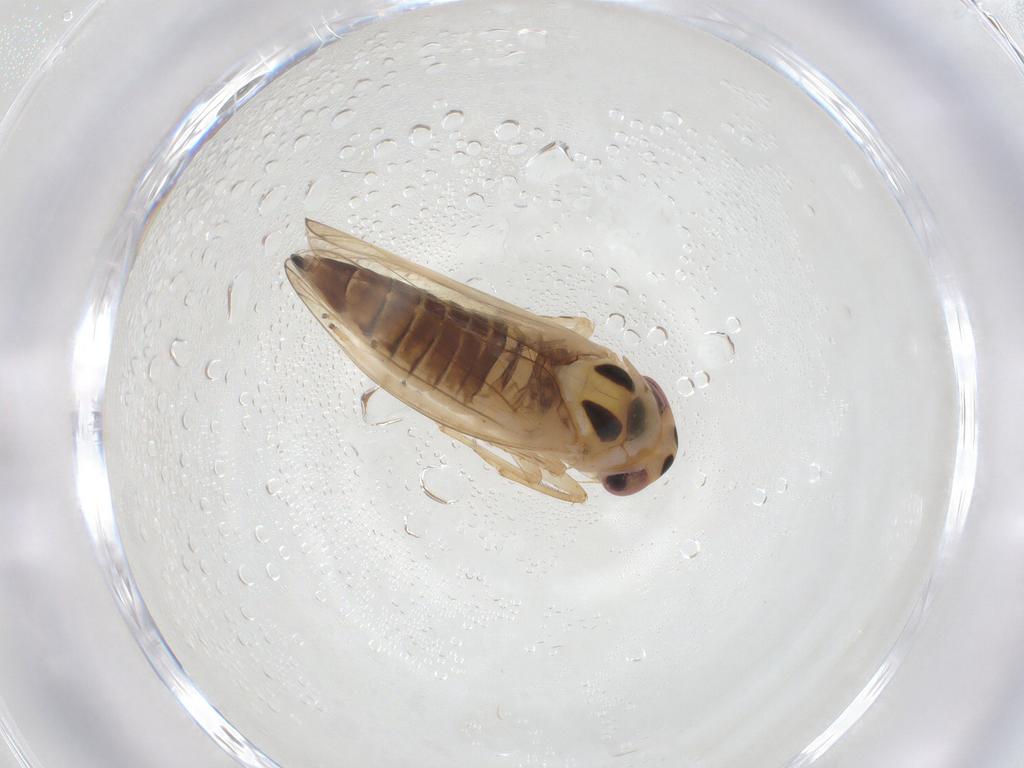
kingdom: Animalia
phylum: Arthropoda
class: Insecta
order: Hemiptera
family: Cicadellidae
